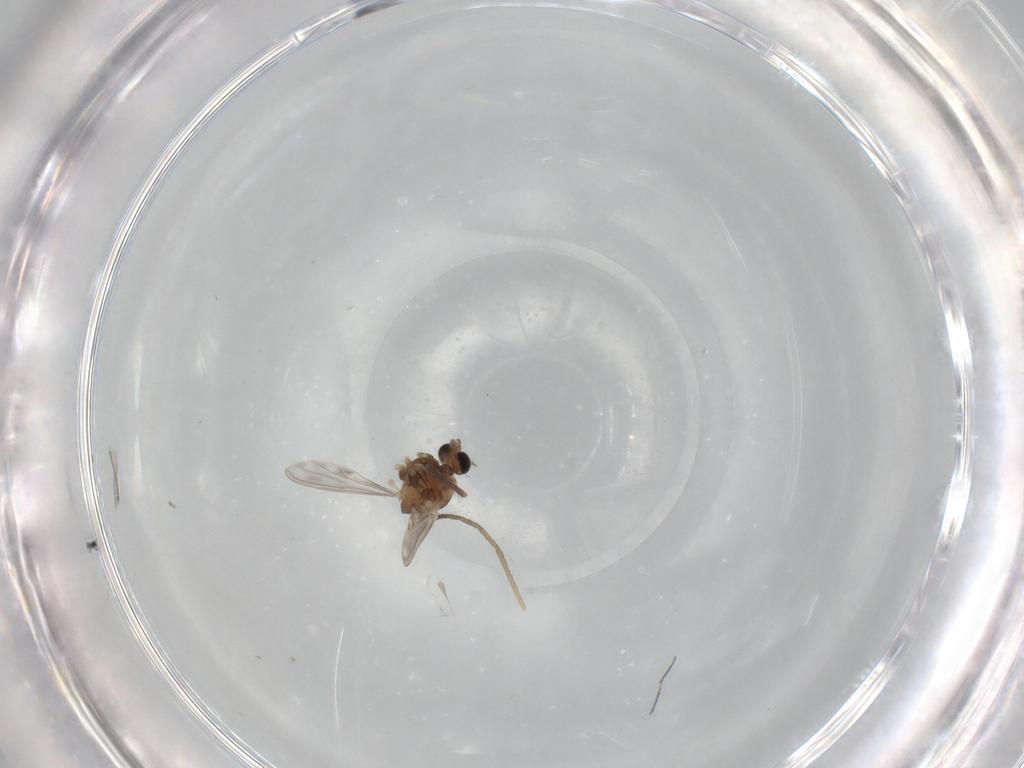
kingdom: Animalia
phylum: Arthropoda
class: Insecta
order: Diptera
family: Chironomidae
